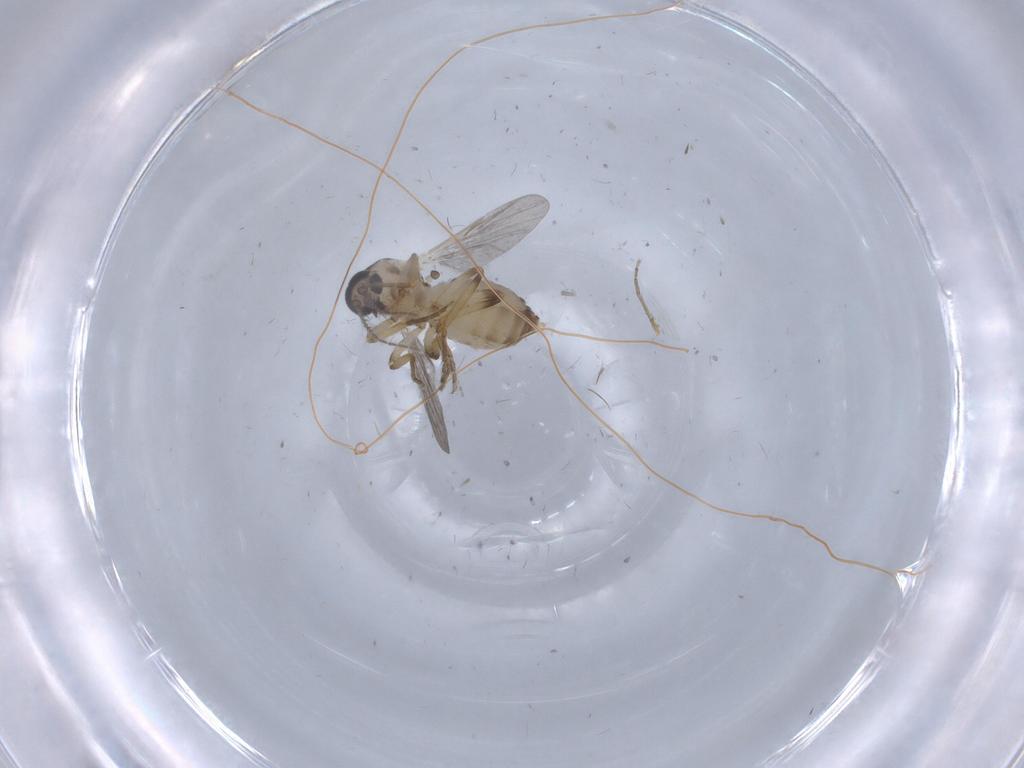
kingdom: Animalia
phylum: Arthropoda
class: Insecta
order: Diptera
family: Ceratopogonidae
